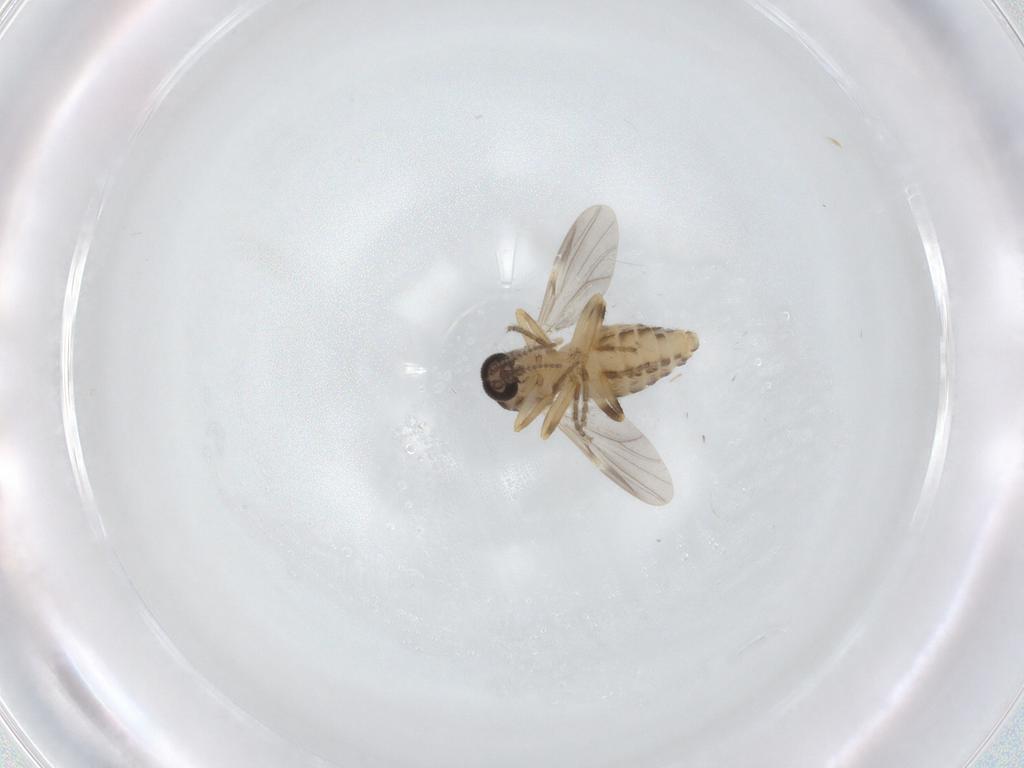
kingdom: Animalia
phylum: Arthropoda
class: Insecta
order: Diptera
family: Ceratopogonidae
